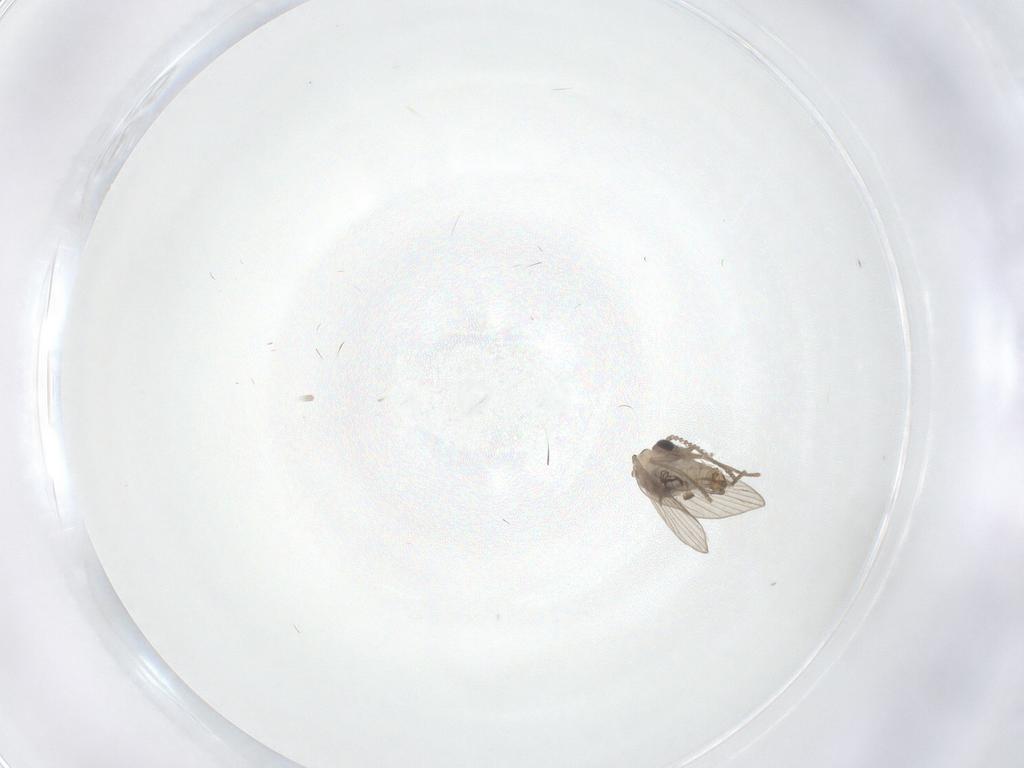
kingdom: Animalia
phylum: Arthropoda
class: Insecta
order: Diptera
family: Psychodidae
